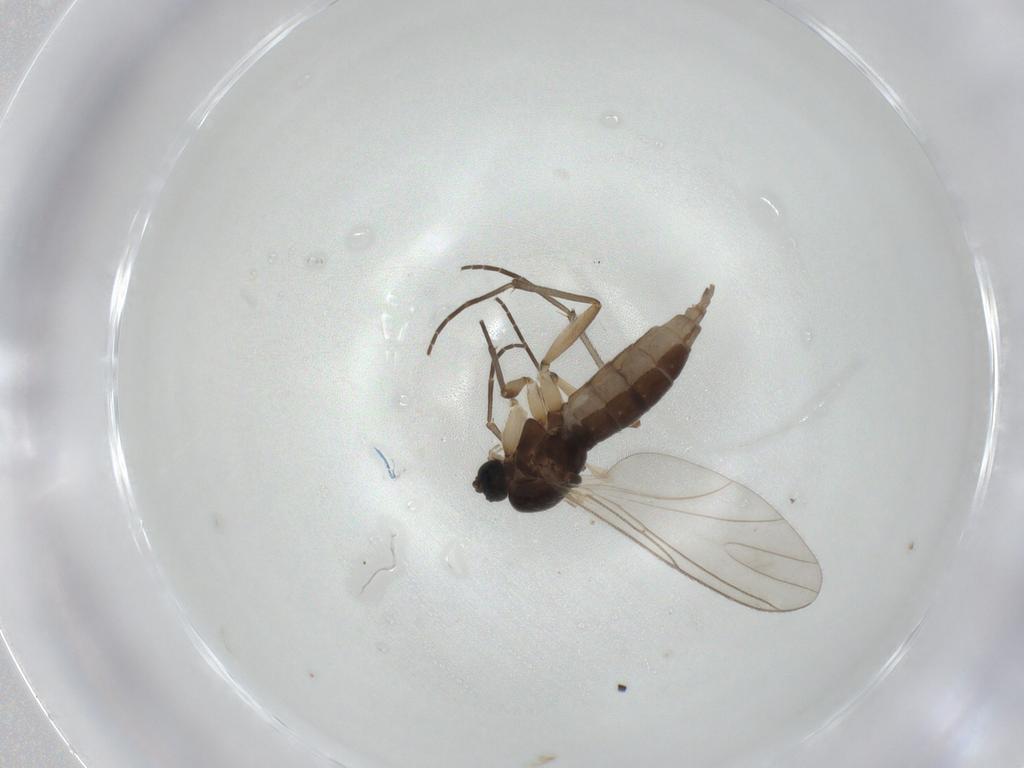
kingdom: Animalia
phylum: Arthropoda
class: Insecta
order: Diptera
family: Sciaridae
